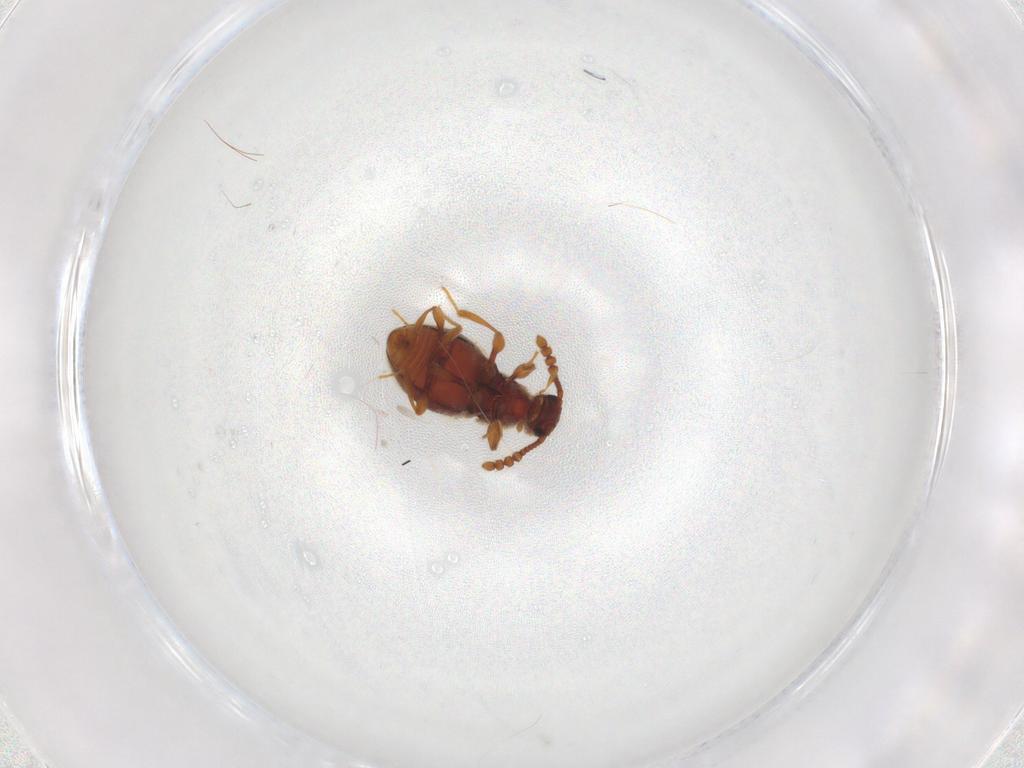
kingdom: Animalia
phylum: Arthropoda
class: Insecta
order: Coleoptera
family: Staphylinidae
